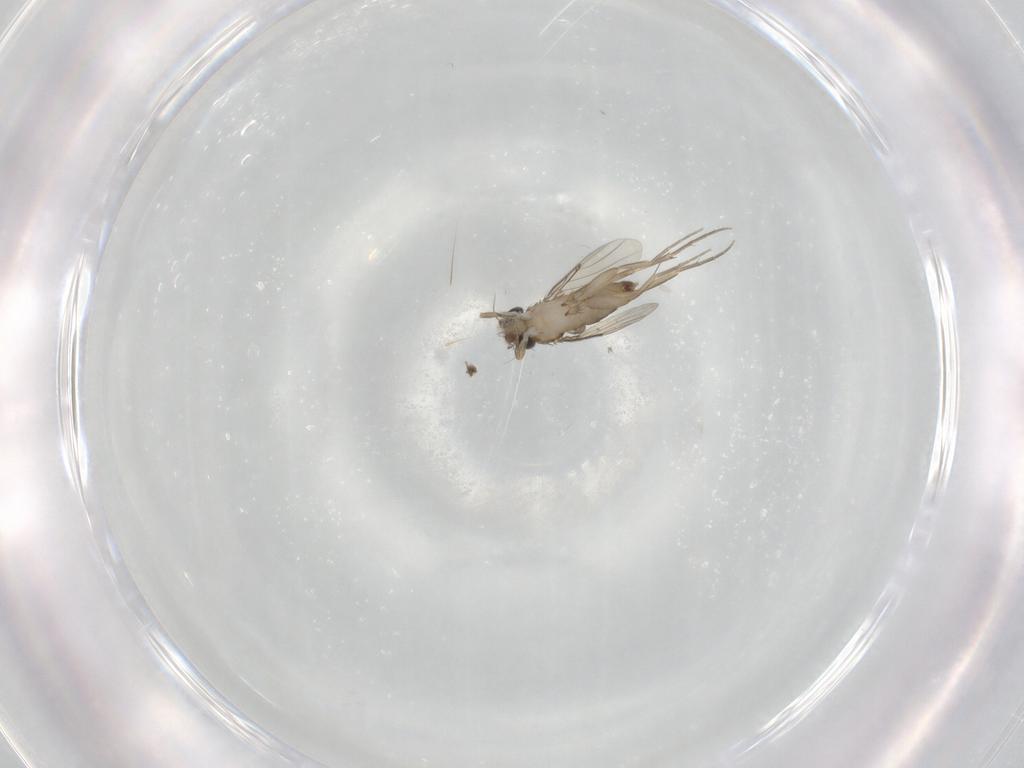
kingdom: Animalia
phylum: Arthropoda
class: Insecta
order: Diptera
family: Phoridae
